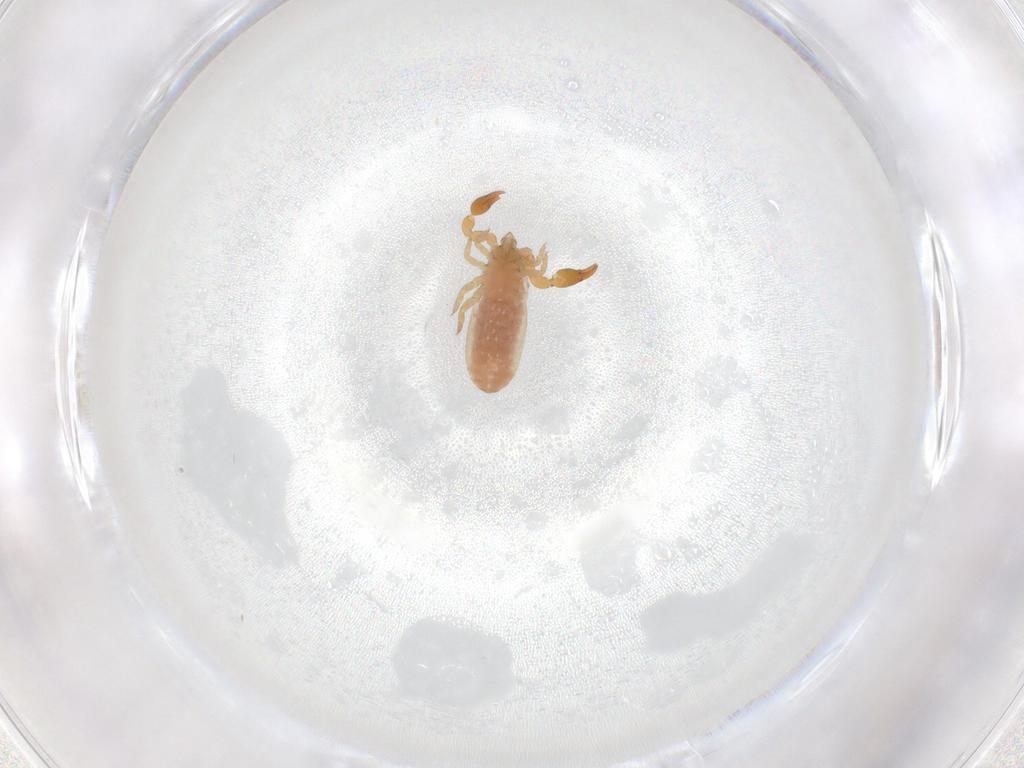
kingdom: Animalia
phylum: Arthropoda
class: Arachnida
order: Pseudoscorpiones
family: Chernetidae
